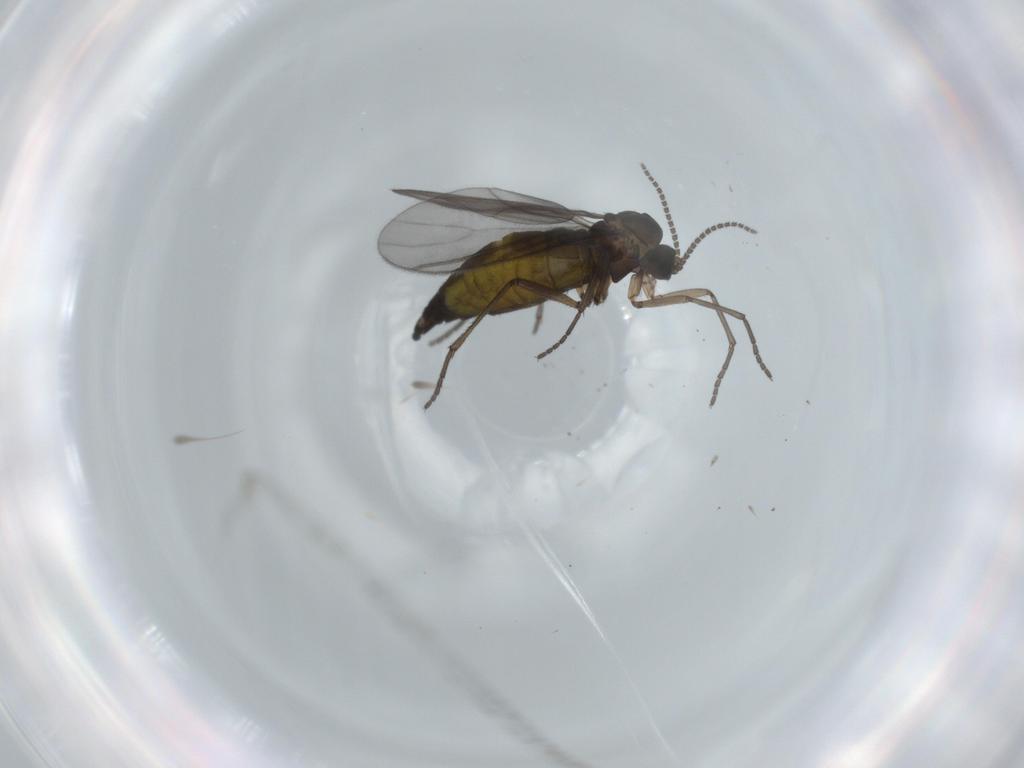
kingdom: Animalia
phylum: Arthropoda
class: Insecta
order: Diptera
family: Sciaridae
